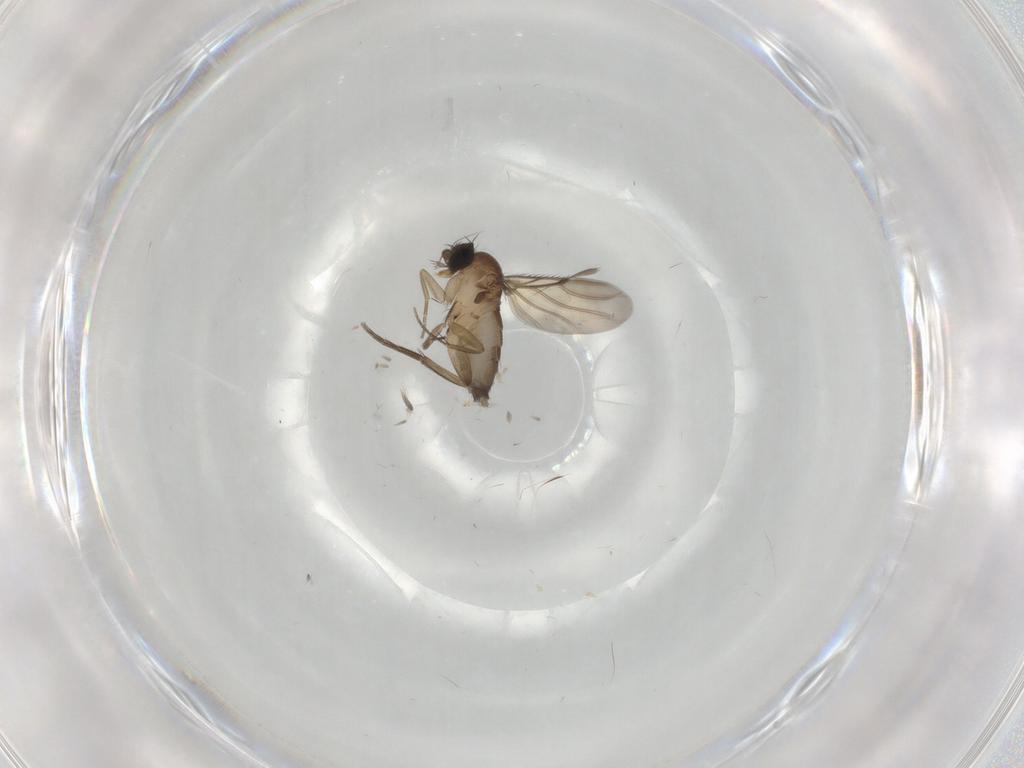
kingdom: Animalia
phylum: Arthropoda
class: Insecta
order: Diptera
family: Phoridae
